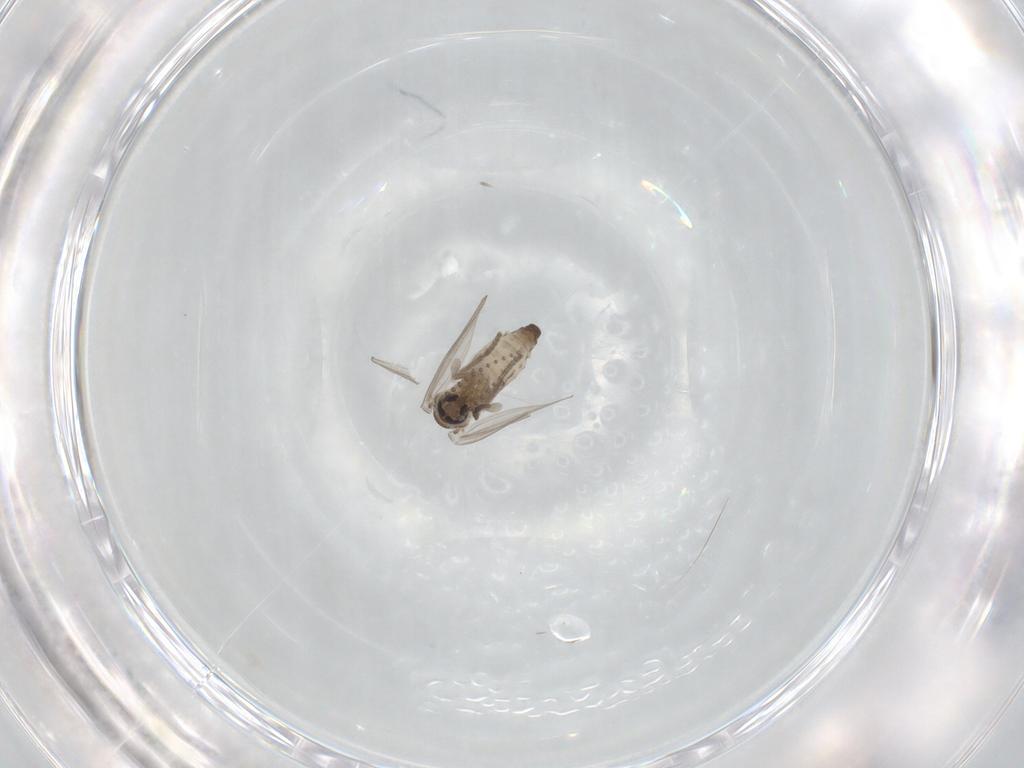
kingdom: Animalia
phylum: Arthropoda
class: Insecta
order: Diptera
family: Psychodidae
